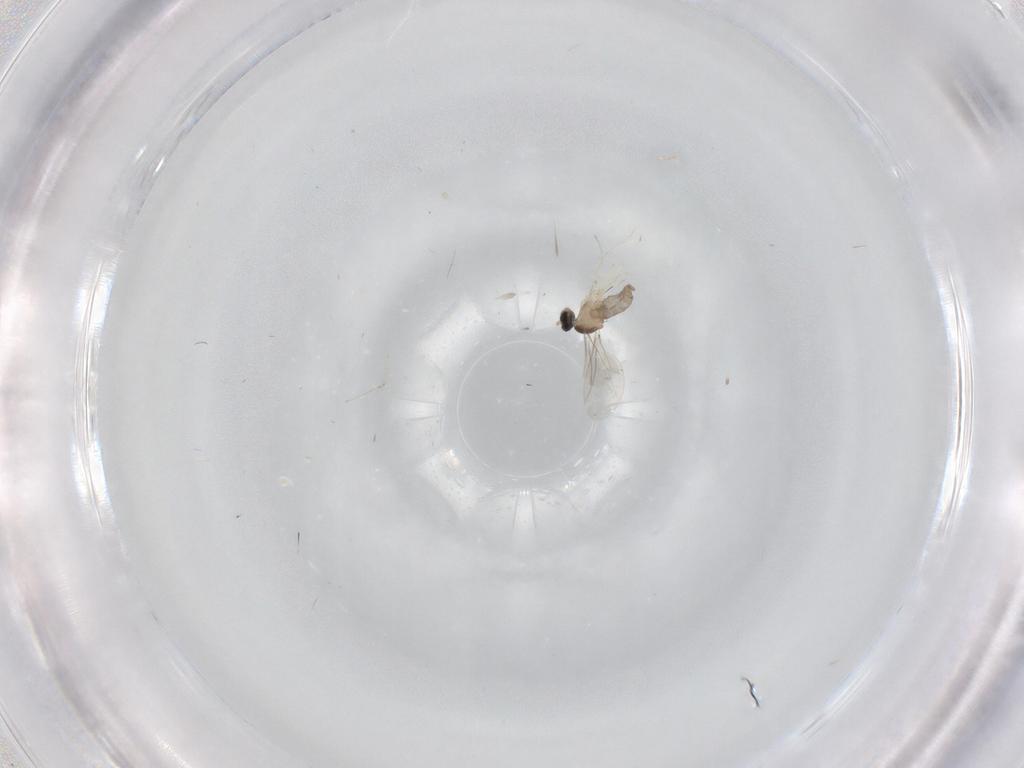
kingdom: Animalia
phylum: Arthropoda
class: Insecta
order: Diptera
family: Cecidomyiidae
